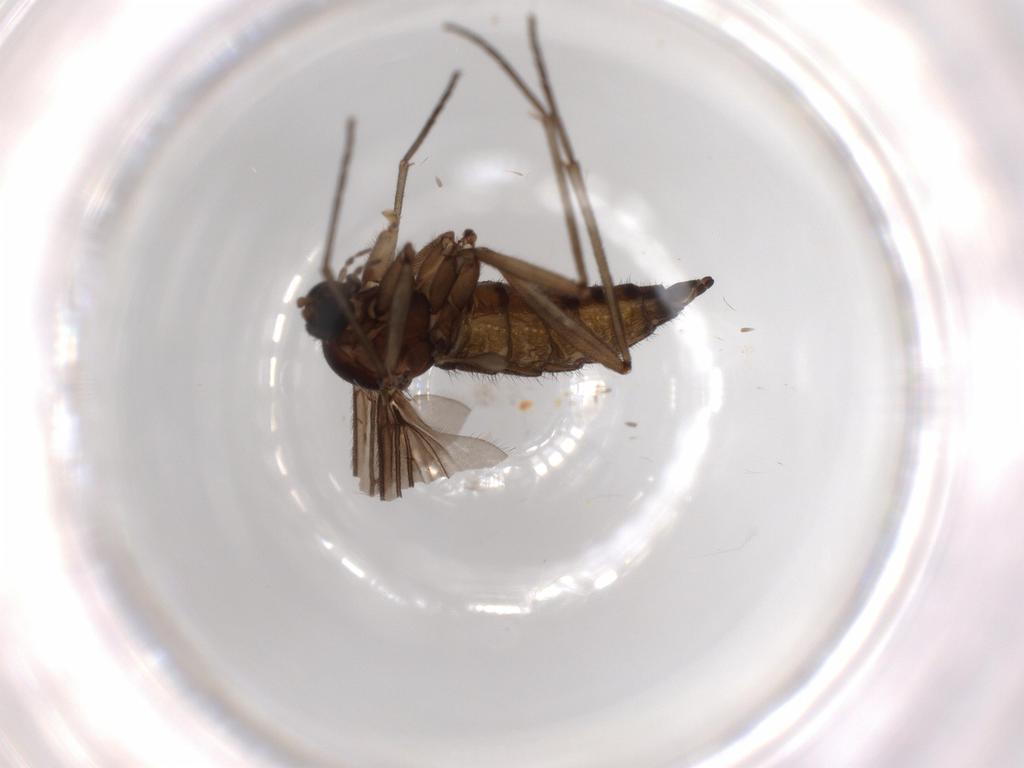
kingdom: Animalia
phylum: Arthropoda
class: Insecta
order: Diptera
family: Sciaridae
